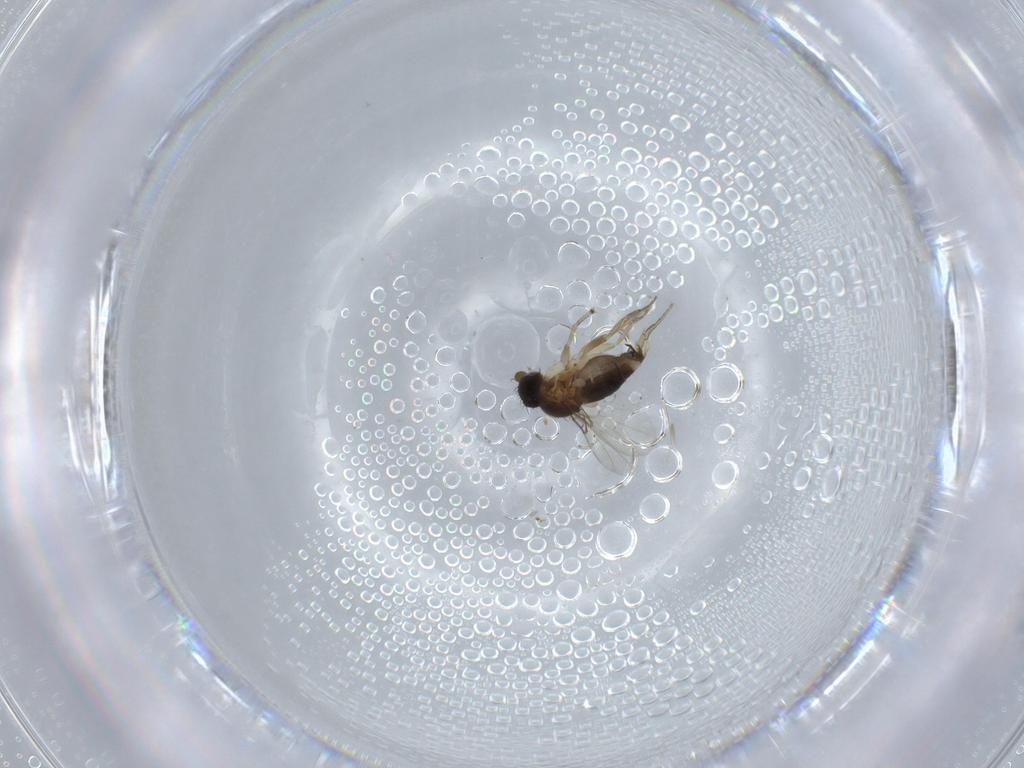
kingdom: Animalia
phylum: Arthropoda
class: Insecta
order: Diptera
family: Phoridae
